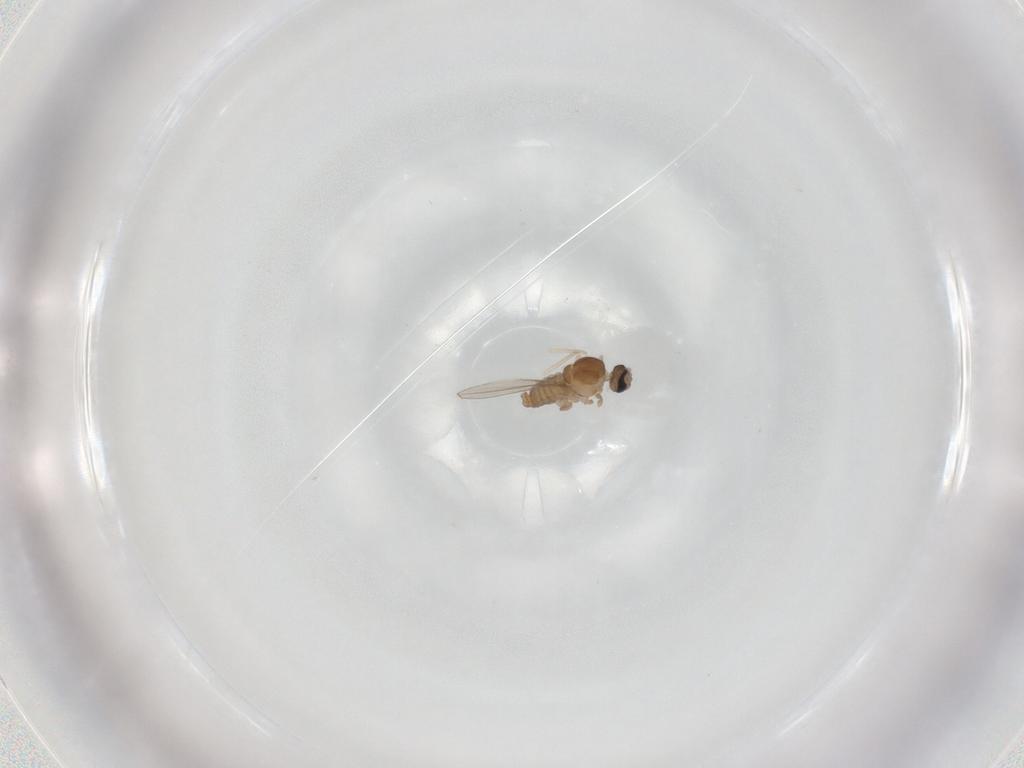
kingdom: Animalia
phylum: Arthropoda
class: Insecta
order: Diptera
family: Cecidomyiidae
